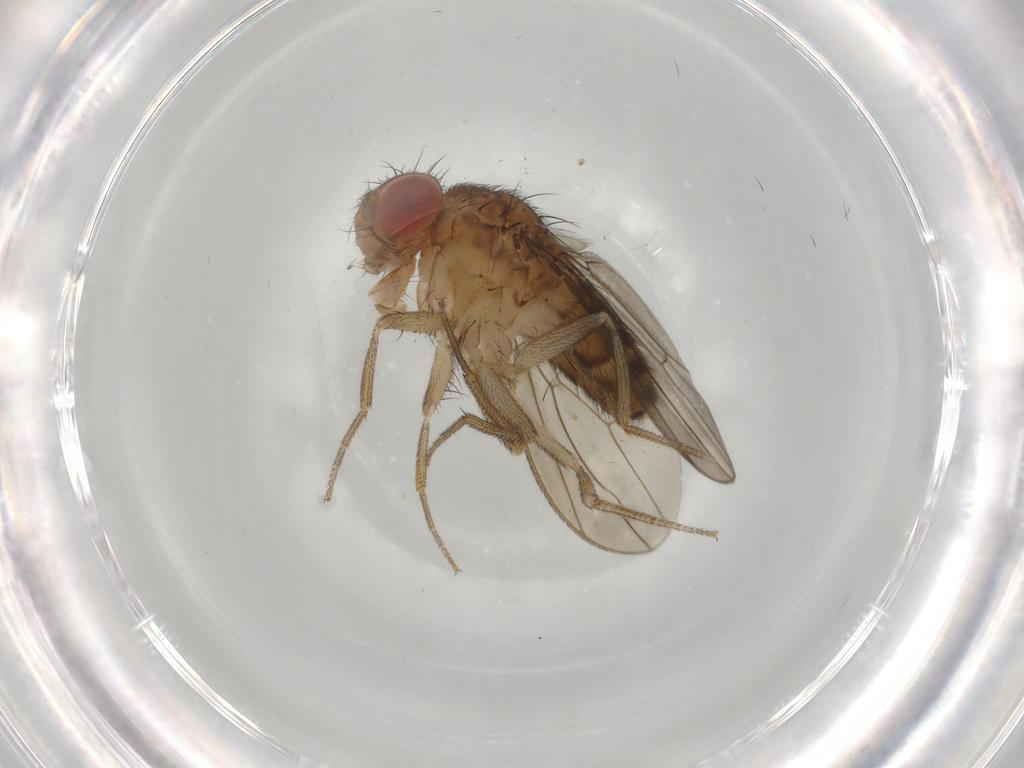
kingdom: Animalia
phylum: Arthropoda
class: Insecta
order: Diptera
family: Drosophilidae
